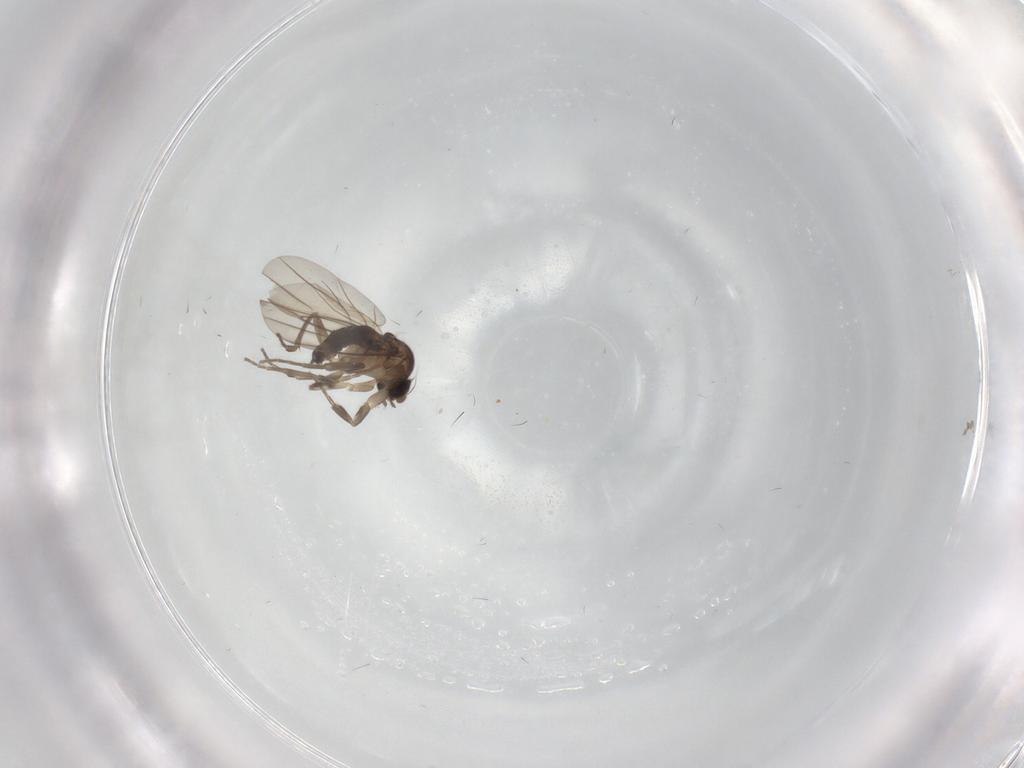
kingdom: Animalia
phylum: Arthropoda
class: Insecta
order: Diptera
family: Phoridae
